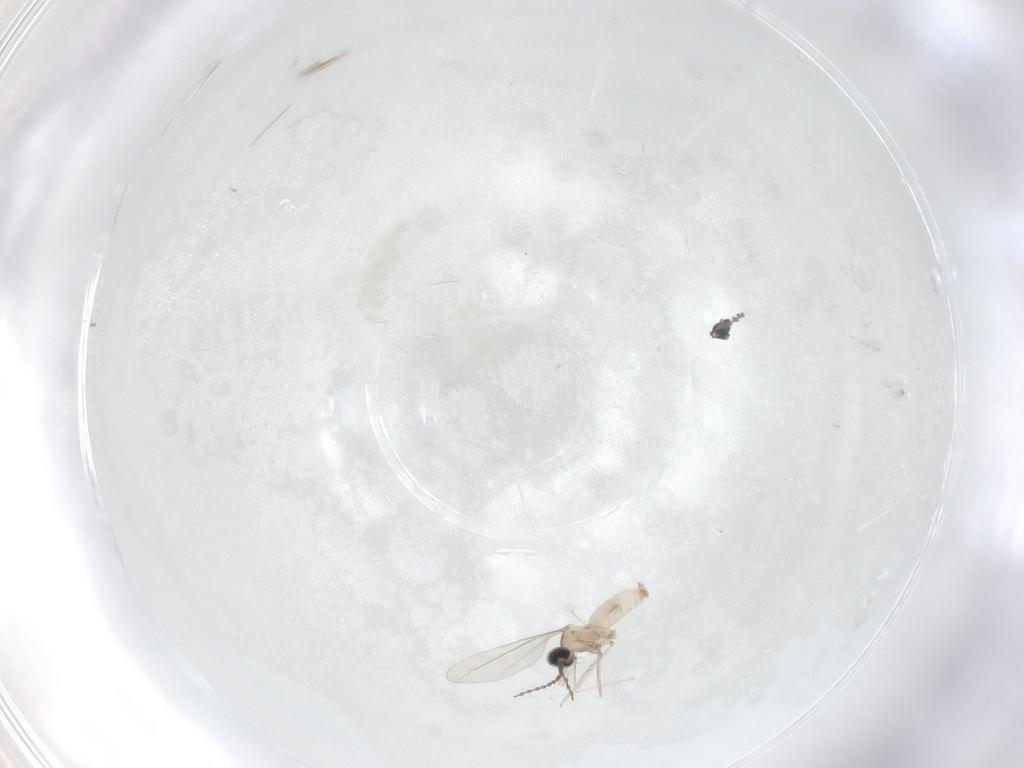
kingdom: Animalia
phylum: Arthropoda
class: Insecta
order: Diptera
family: Cecidomyiidae
